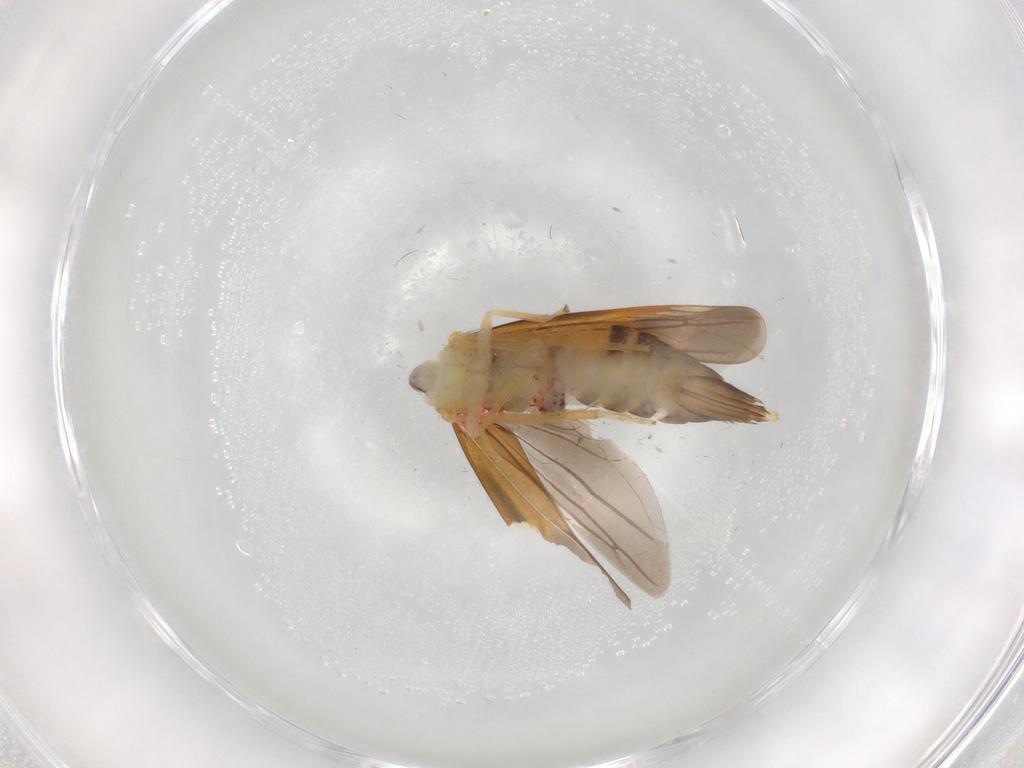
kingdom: Animalia
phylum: Arthropoda
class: Insecta
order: Hemiptera
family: Cicadellidae
